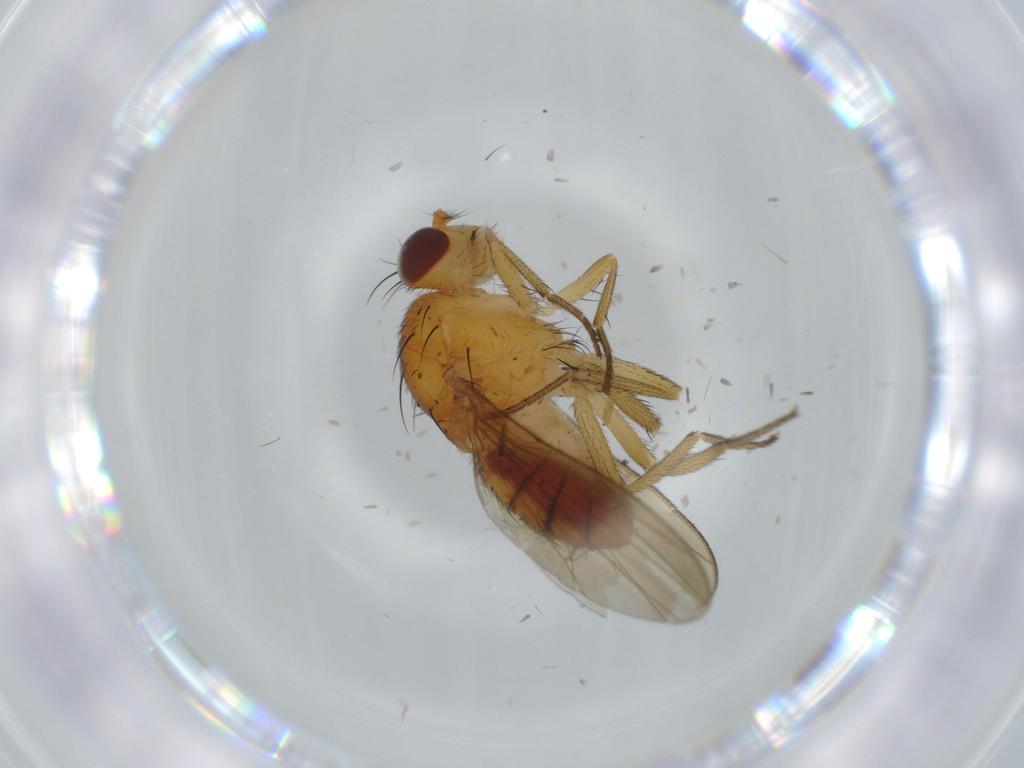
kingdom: Animalia
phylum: Arthropoda
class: Insecta
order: Diptera
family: Lauxaniidae
